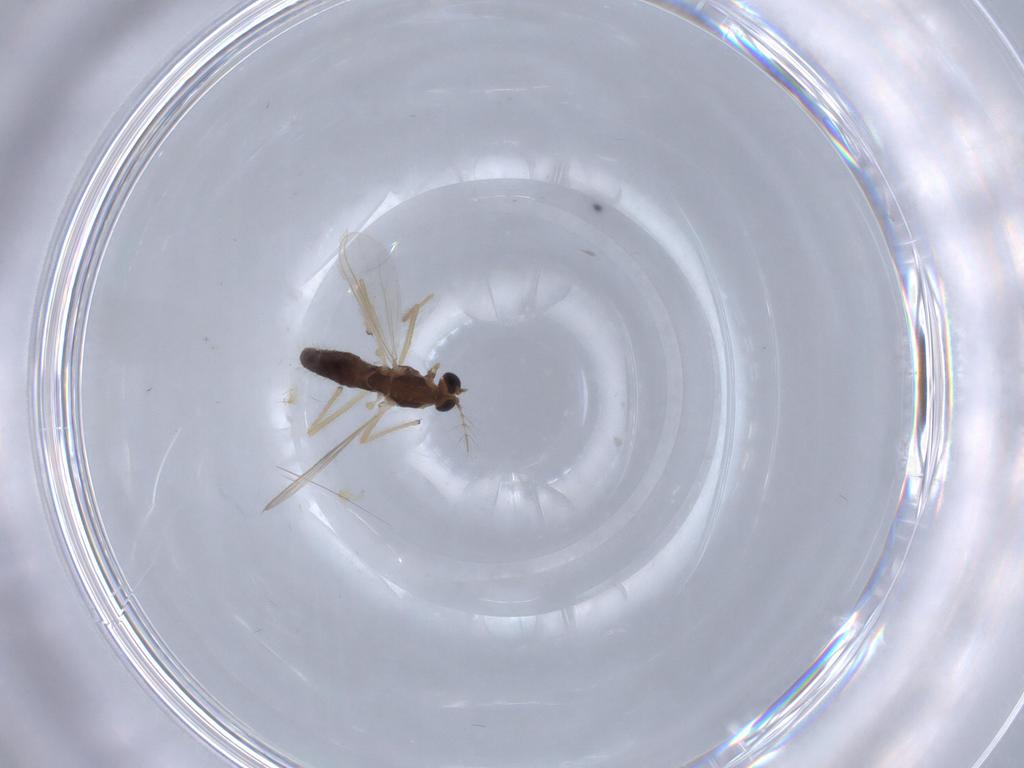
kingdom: Animalia
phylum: Arthropoda
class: Insecta
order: Diptera
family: Chironomidae
